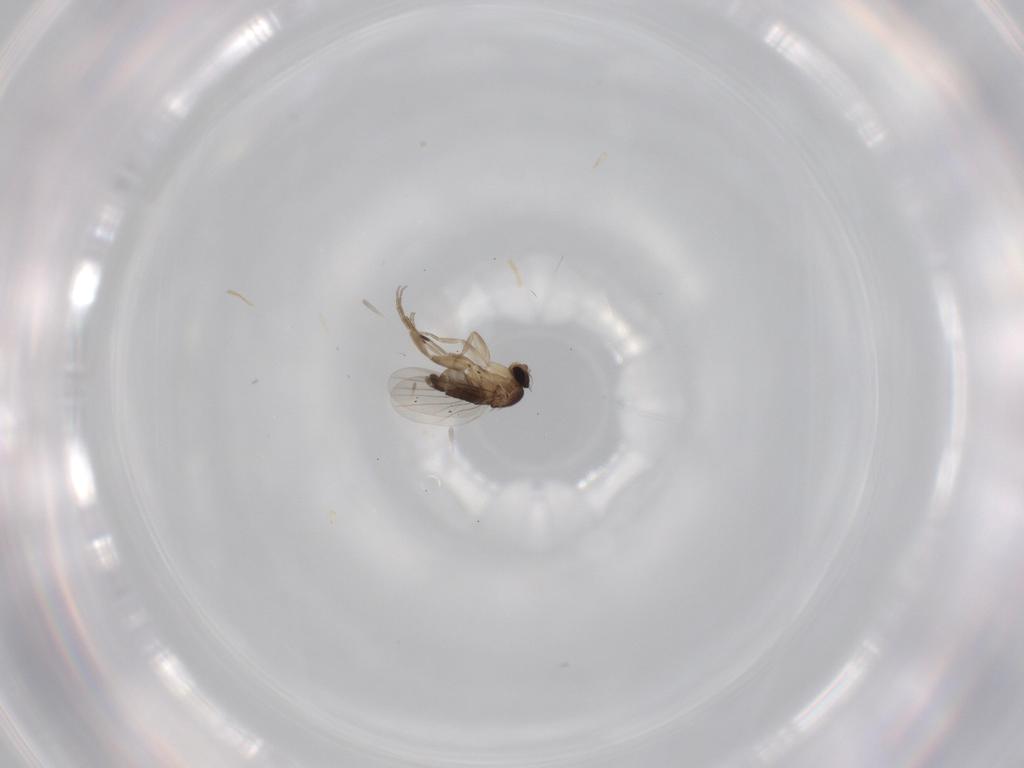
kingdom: Animalia
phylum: Arthropoda
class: Insecta
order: Diptera
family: Phoridae
